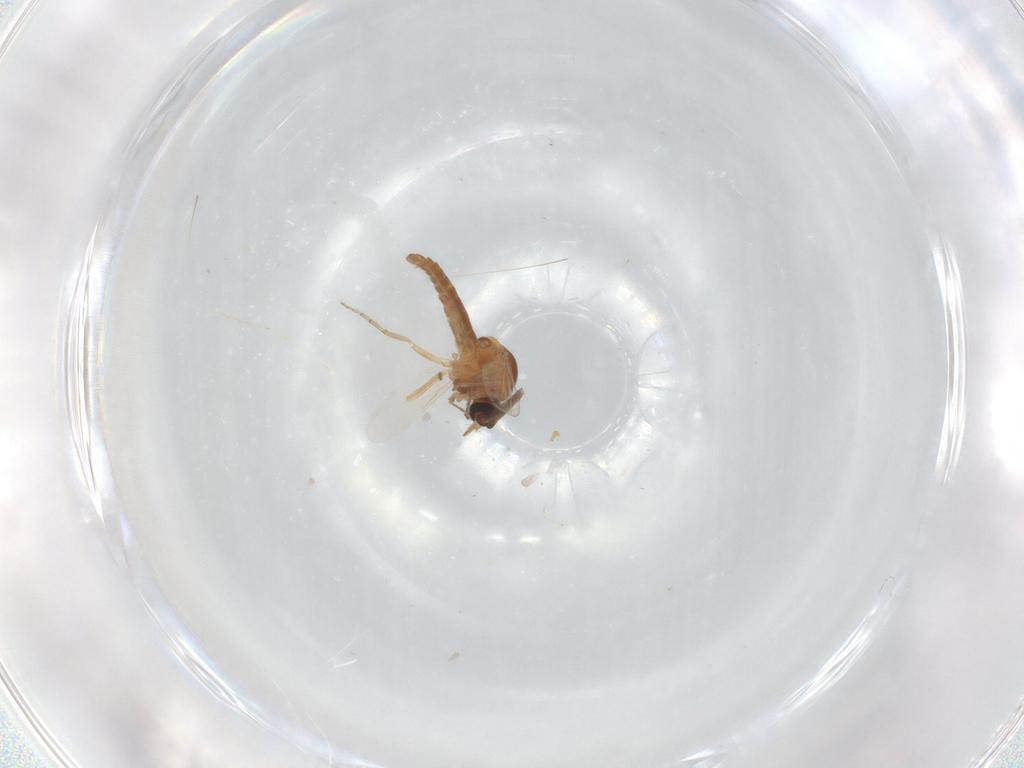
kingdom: Animalia
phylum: Arthropoda
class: Insecta
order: Diptera
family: Ceratopogonidae
